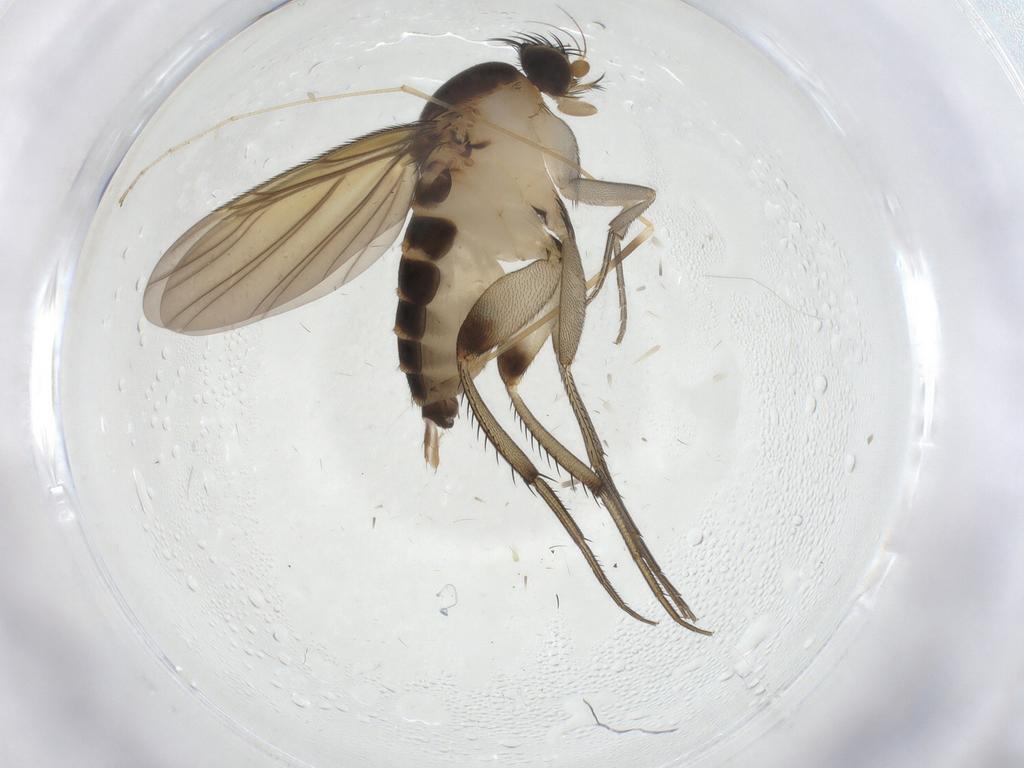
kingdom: Animalia
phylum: Arthropoda
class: Insecta
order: Diptera
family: Phoridae
